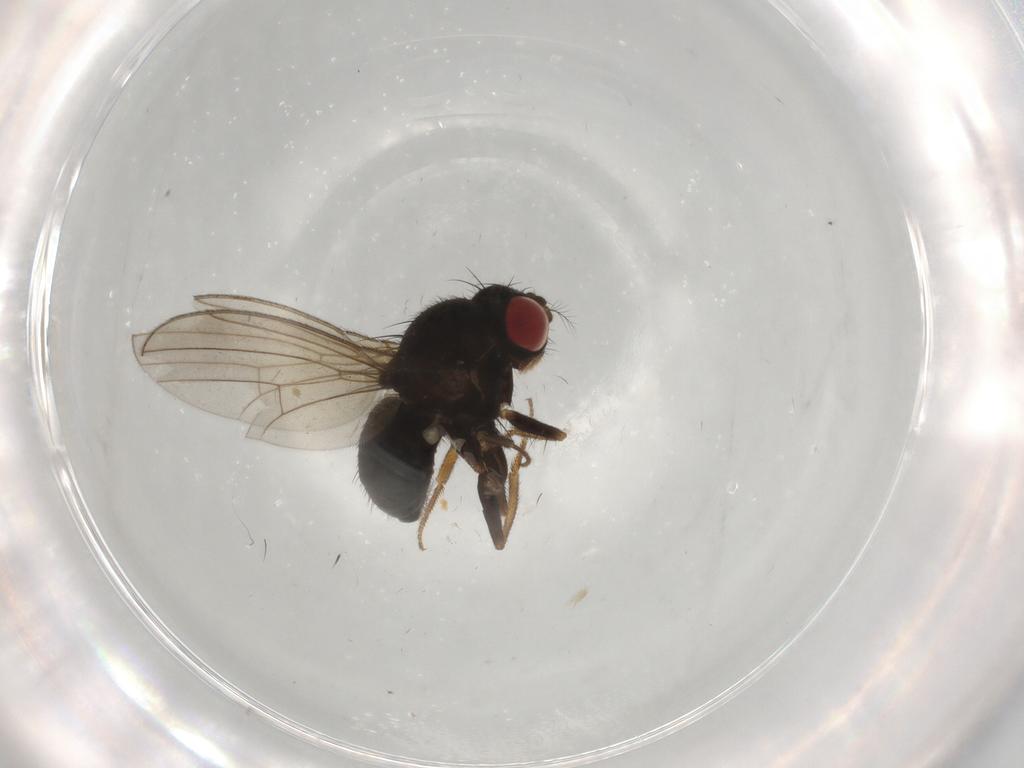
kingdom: Animalia
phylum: Arthropoda
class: Insecta
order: Diptera
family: Drosophilidae
